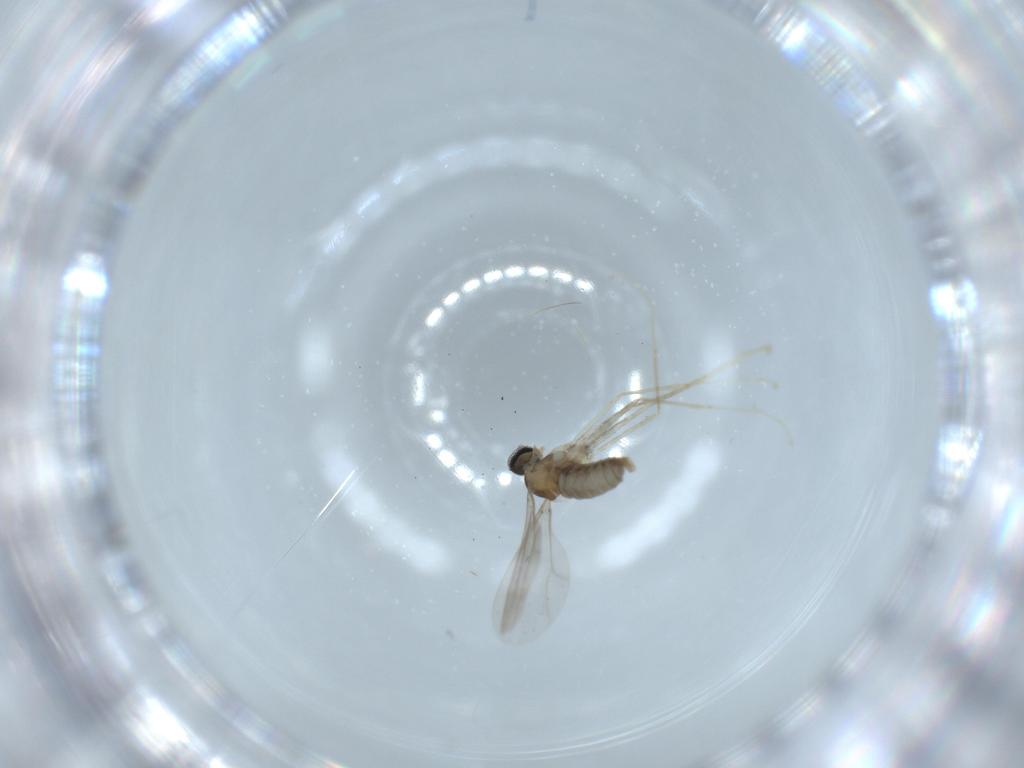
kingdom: Animalia
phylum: Arthropoda
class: Insecta
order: Diptera
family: Cecidomyiidae
